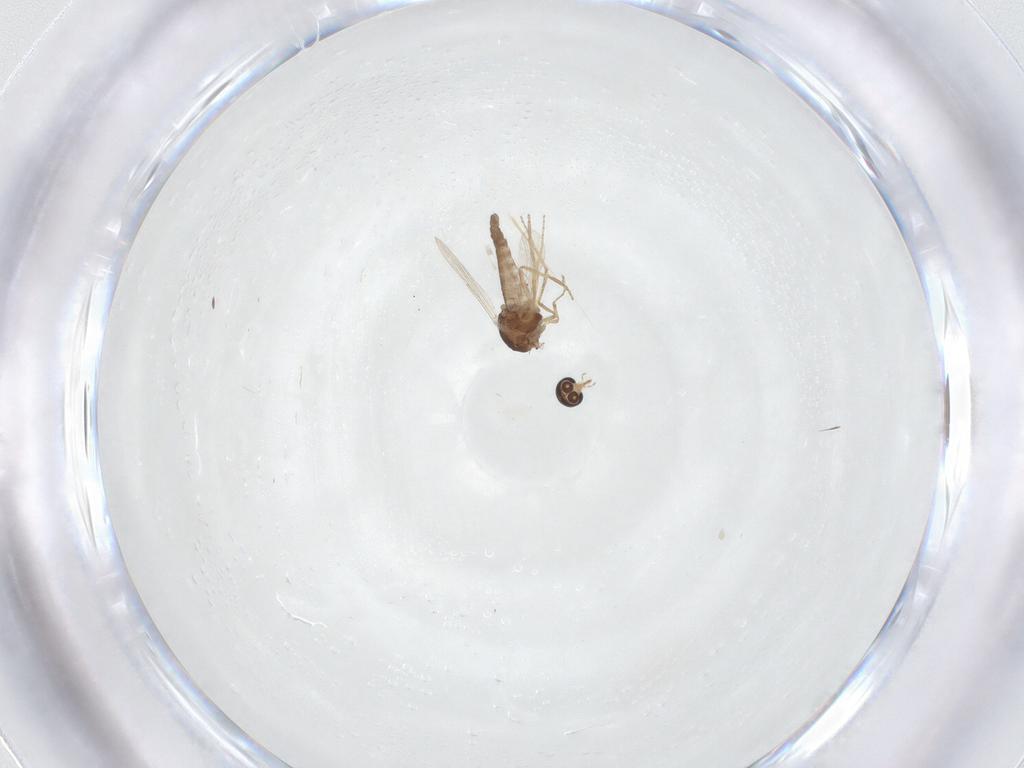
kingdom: Animalia
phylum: Arthropoda
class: Insecta
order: Diptera
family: Ceratopogonidae
